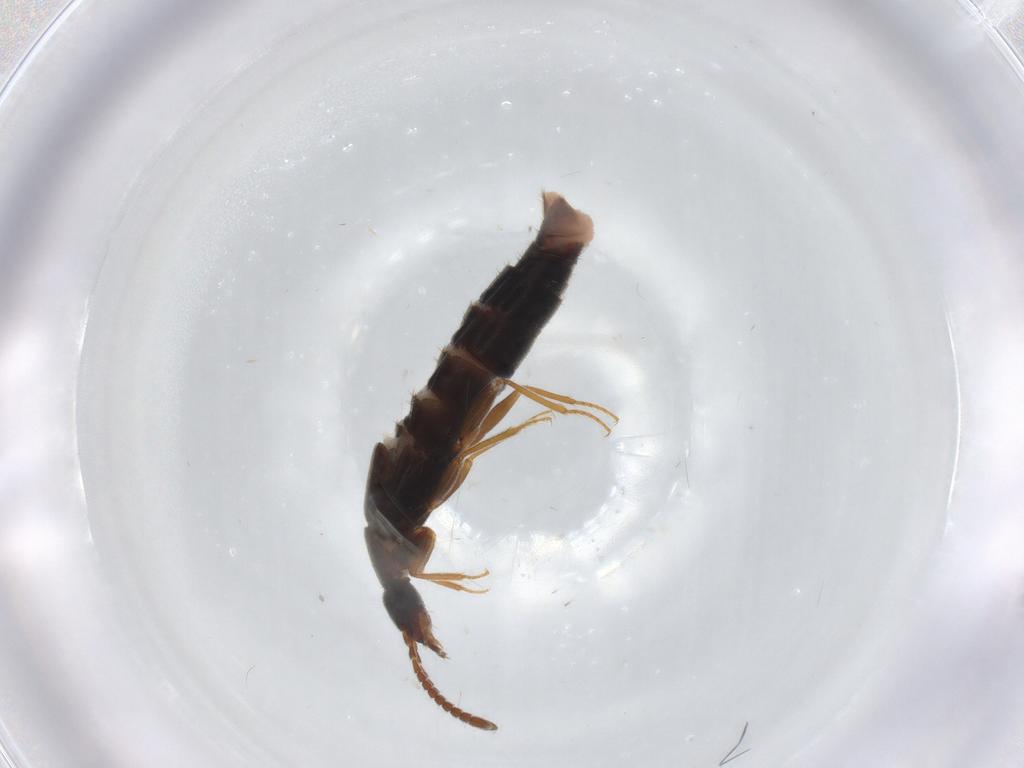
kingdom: Animalia
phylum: Arthropoda
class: Insecta
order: Coleoptera
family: Staphylinidae
